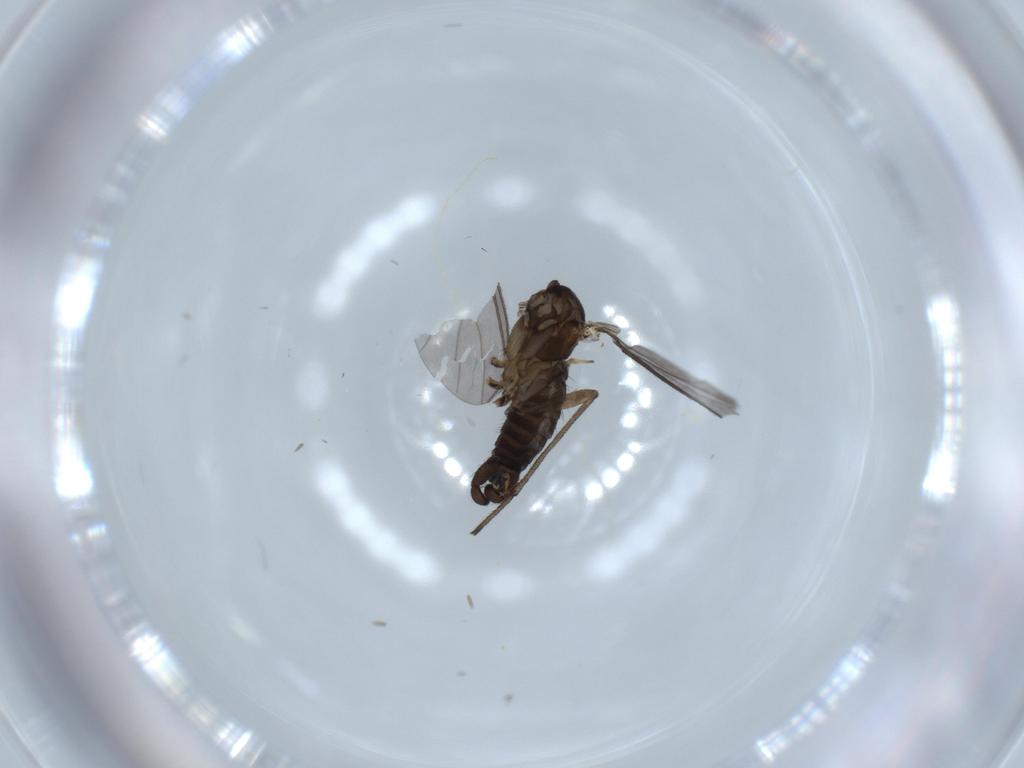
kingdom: Animalia
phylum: Arthropoda
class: Insecta
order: Diptera
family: Sciaridae
